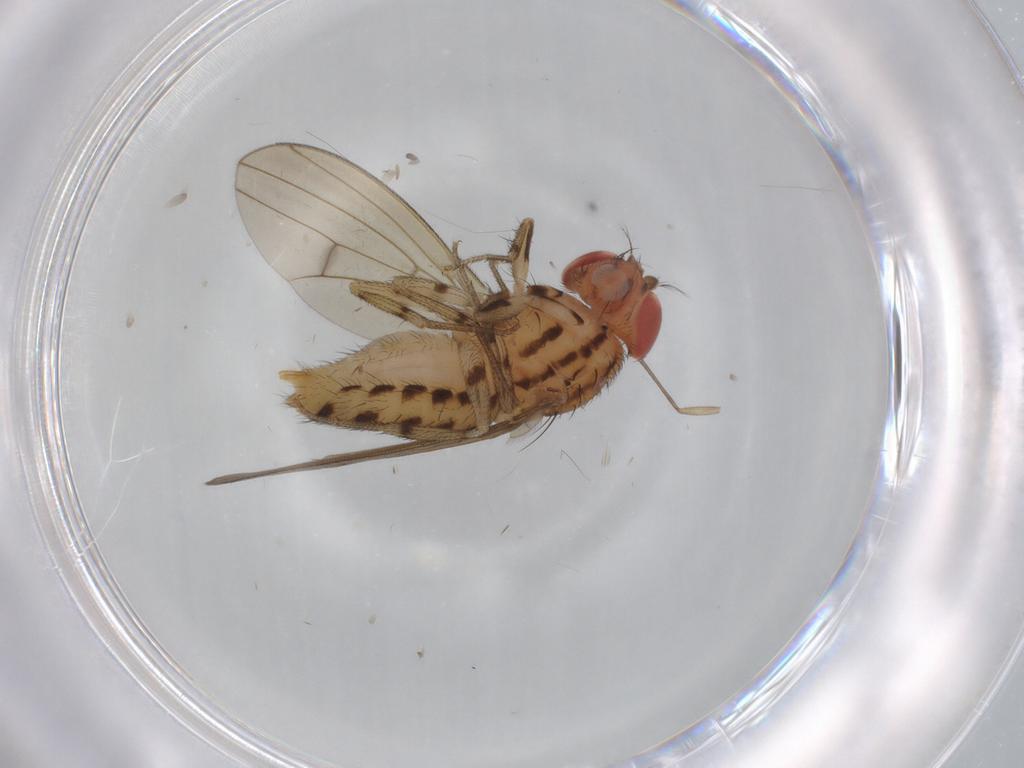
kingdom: Animalia
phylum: Arthropoda
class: Insecta
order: Diptera
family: Drosophilidae
